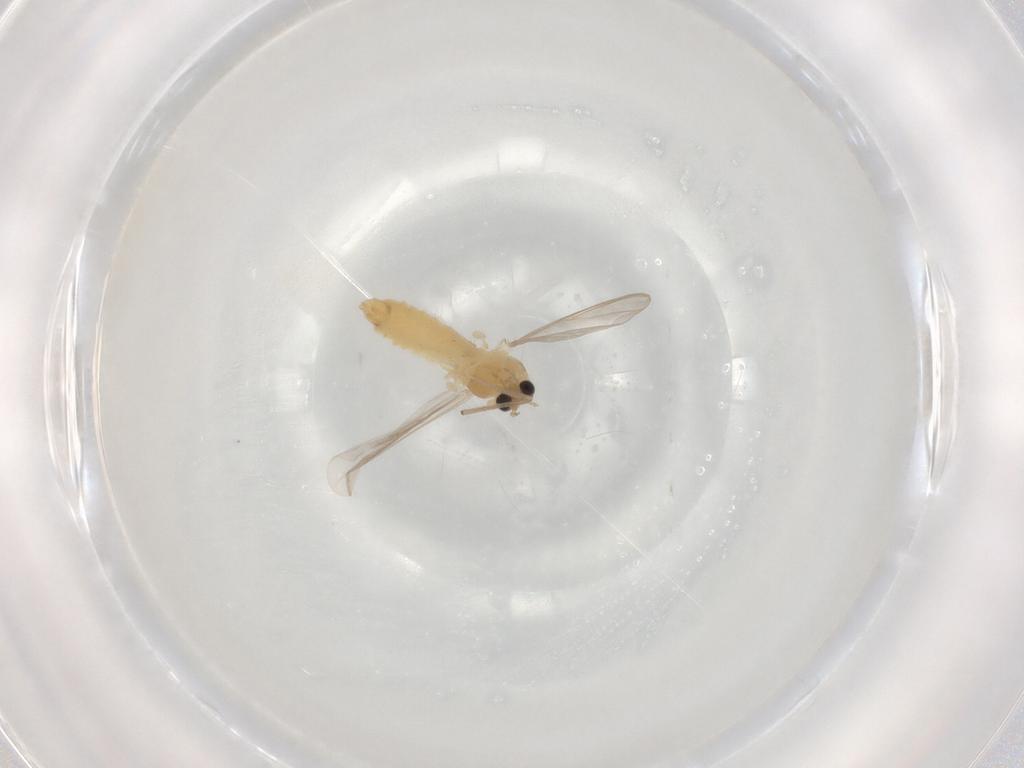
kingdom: Animalia
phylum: Arthropoda
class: Insecta
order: Diptera
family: Chironomidae
